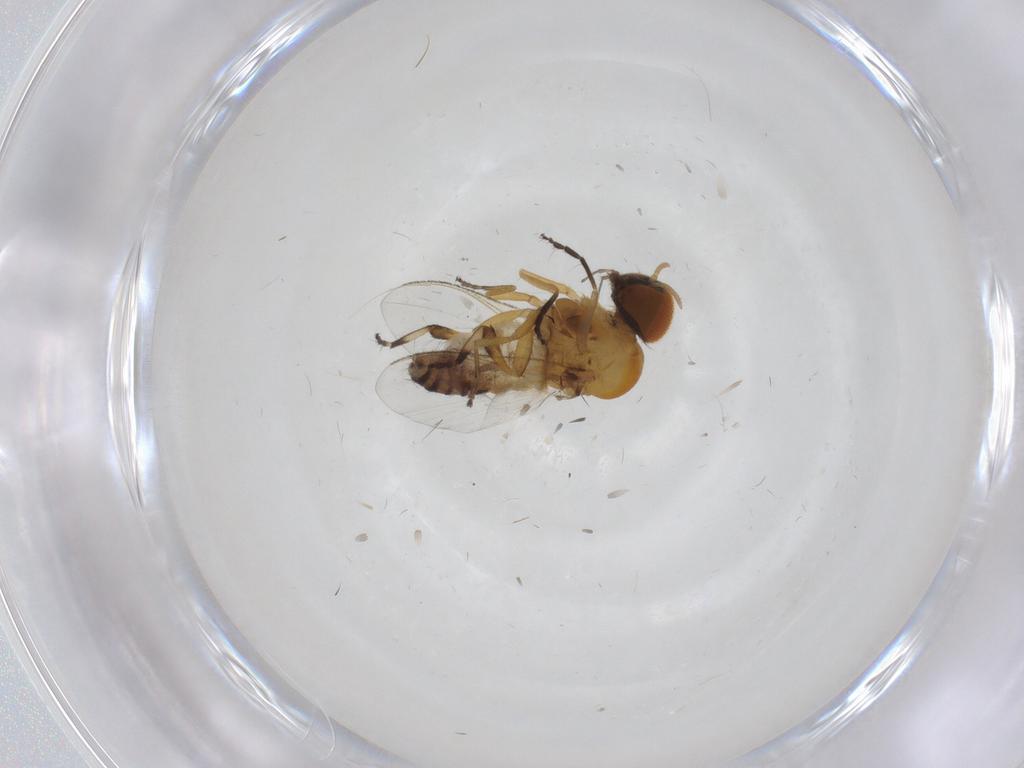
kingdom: Animalia
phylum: Arthropoda
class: Insecta
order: Diptera
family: Simuliidae
